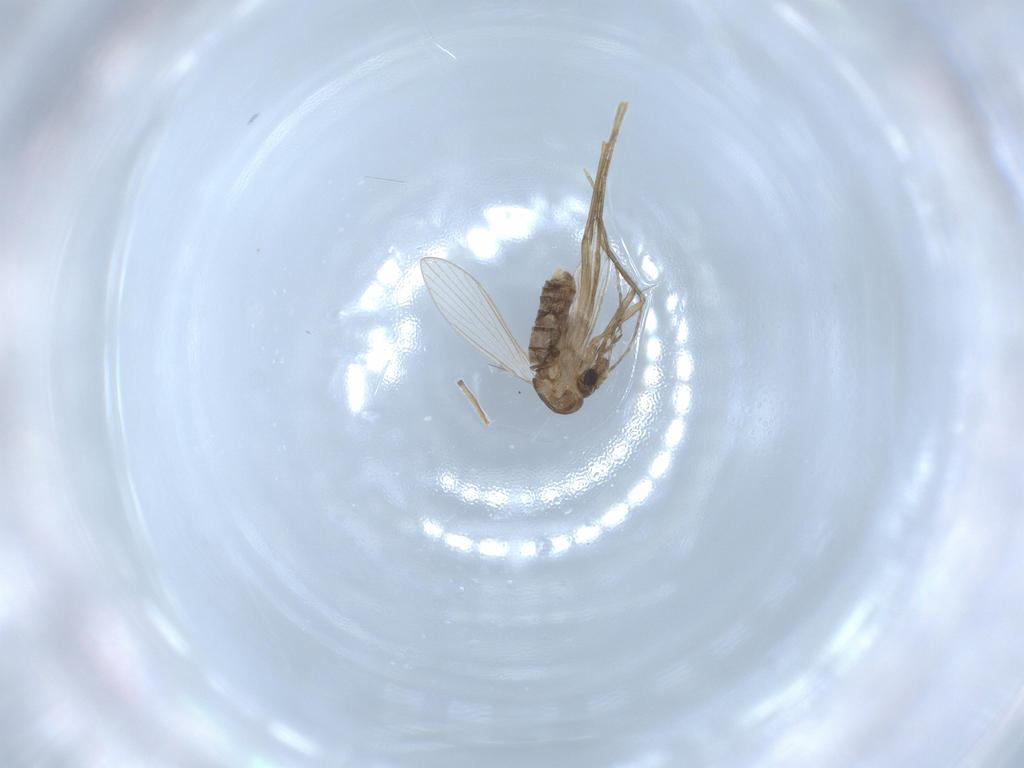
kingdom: Animalia
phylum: Arthropoda
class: Insecta
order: Diptera
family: Psychodidae
